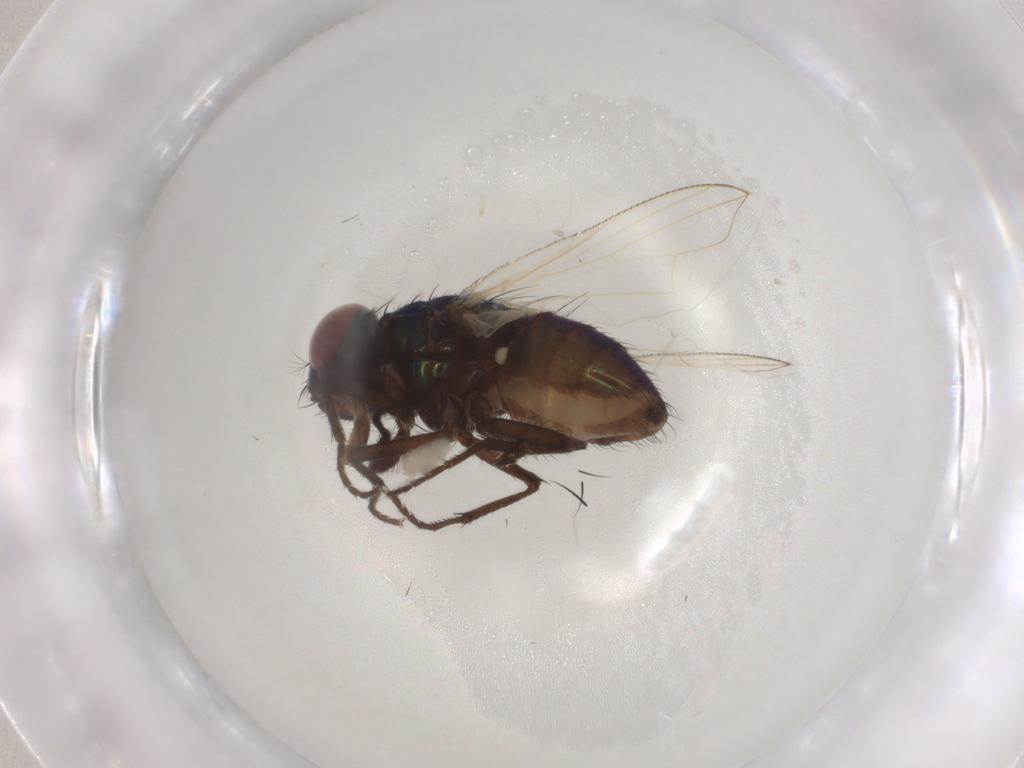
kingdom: Animalia
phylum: Arthropoda
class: Insecta
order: Diptera
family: Muscidae
